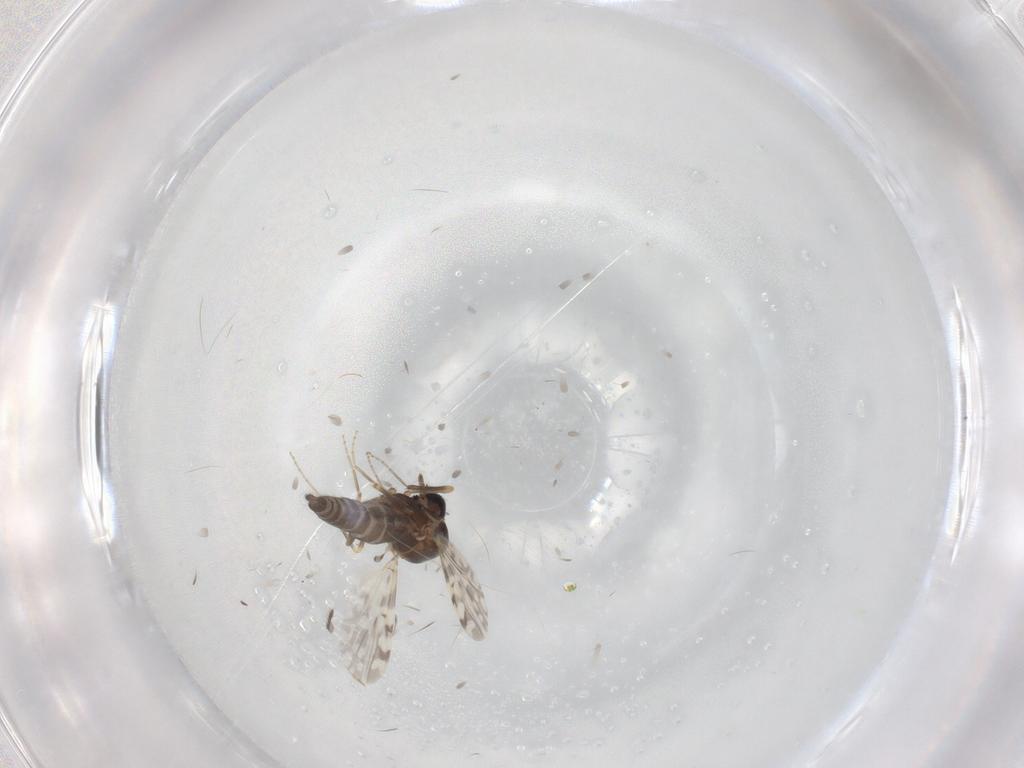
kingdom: Animalia
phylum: Arthropoda
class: Insecta
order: Diptera
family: Ceratopogonidae
